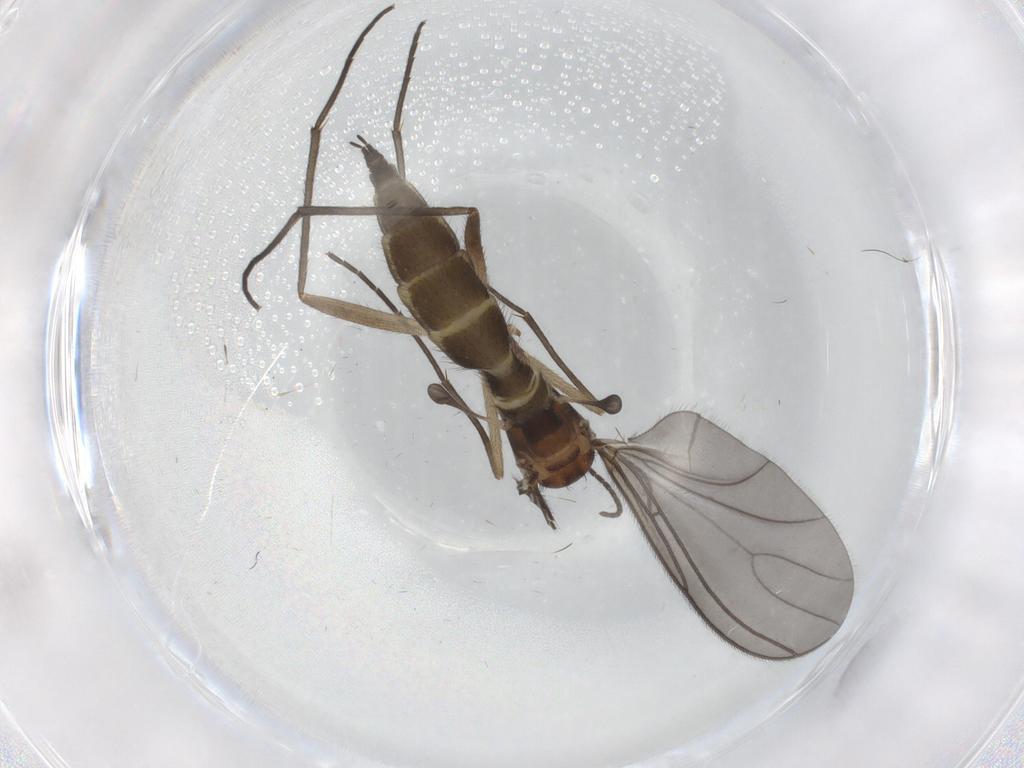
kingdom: Animalia
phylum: Arthropoda
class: Insecta
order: Diptera
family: Sciaridae
